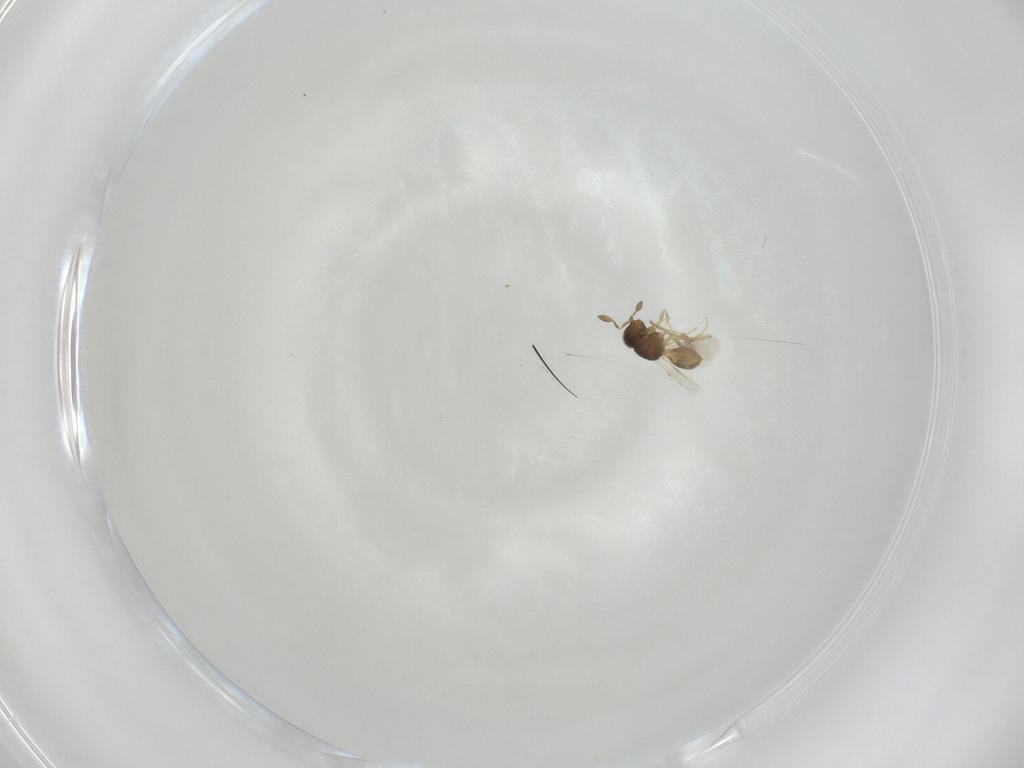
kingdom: Animalia
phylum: Arthropoda
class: Insecta
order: Hymenoptera
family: Scelionidae
